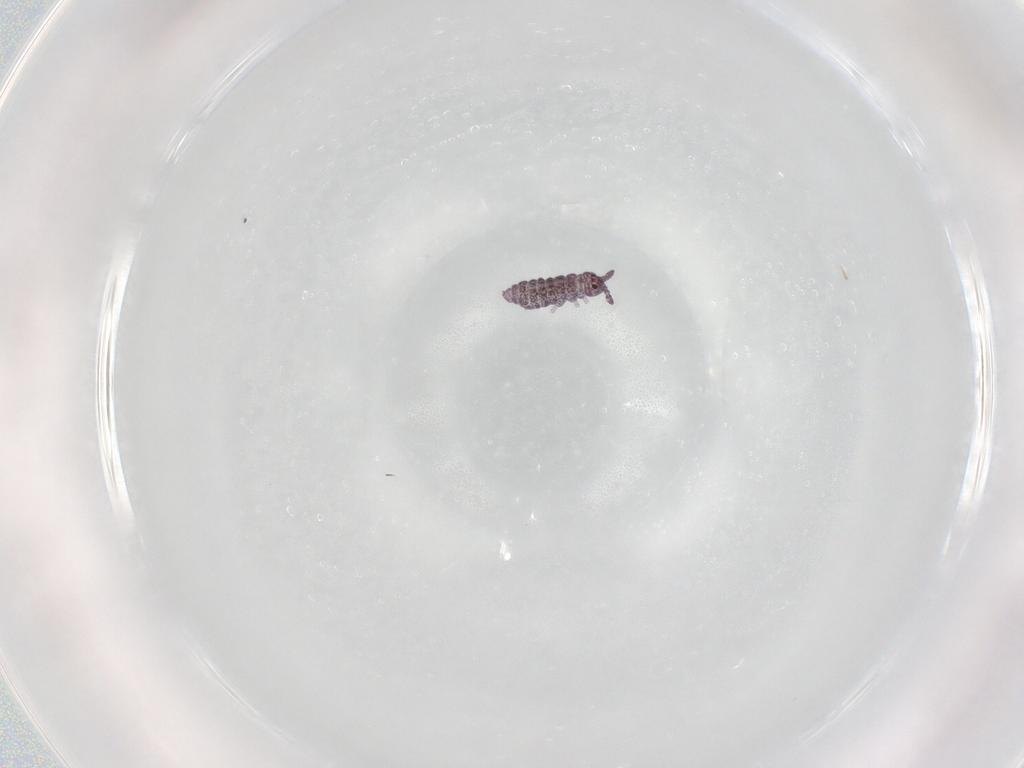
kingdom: Animalia
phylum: Arthropoda
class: Collembola
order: Poduromorpha
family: Hypogastruridae
